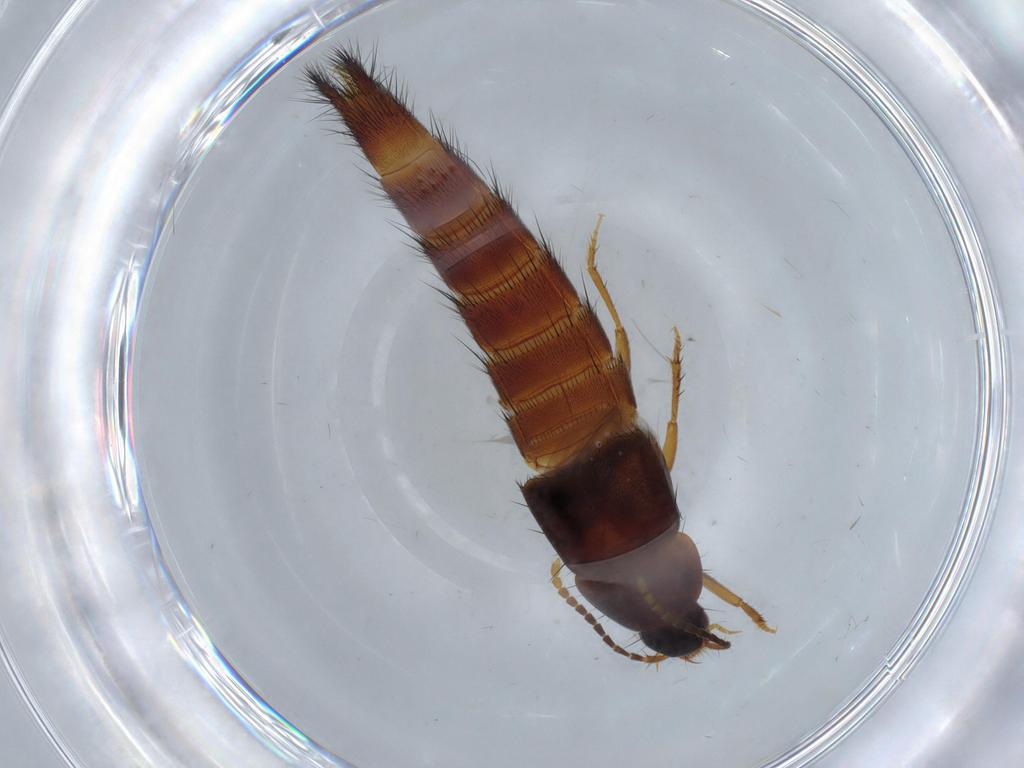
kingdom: Animalia
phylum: Arthropoda
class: Insecta
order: Coleoptera
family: Staphylinidae
